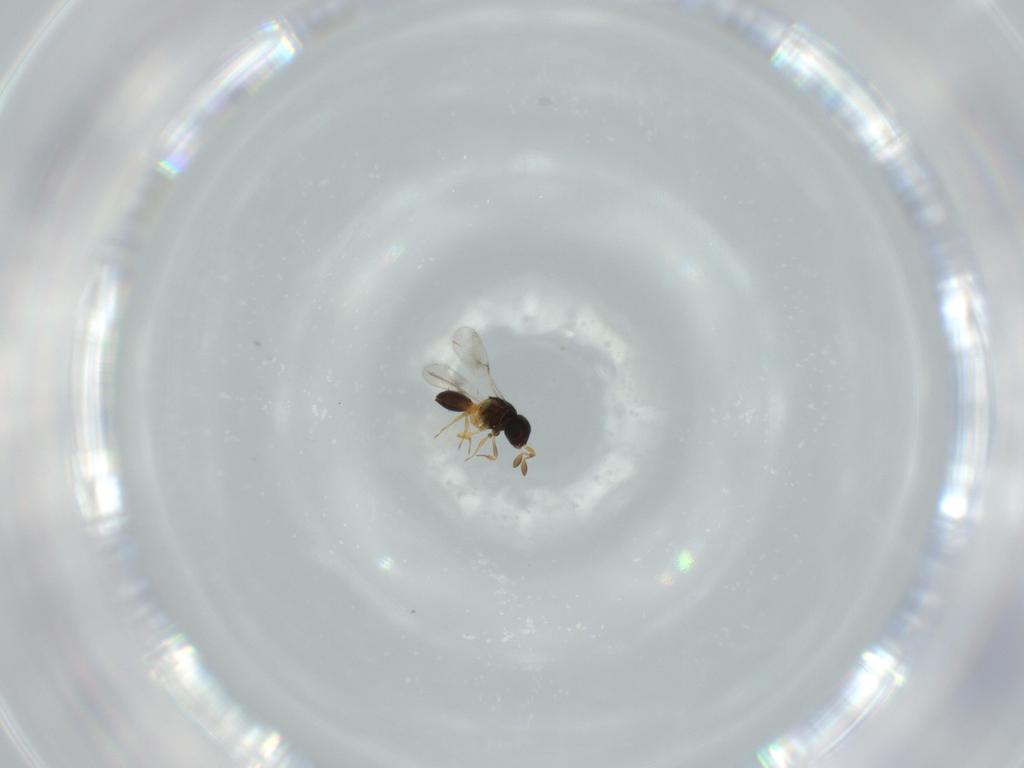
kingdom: Animalia
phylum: Arthropoda
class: Insecta
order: Hymenoptera
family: Scelionidae
